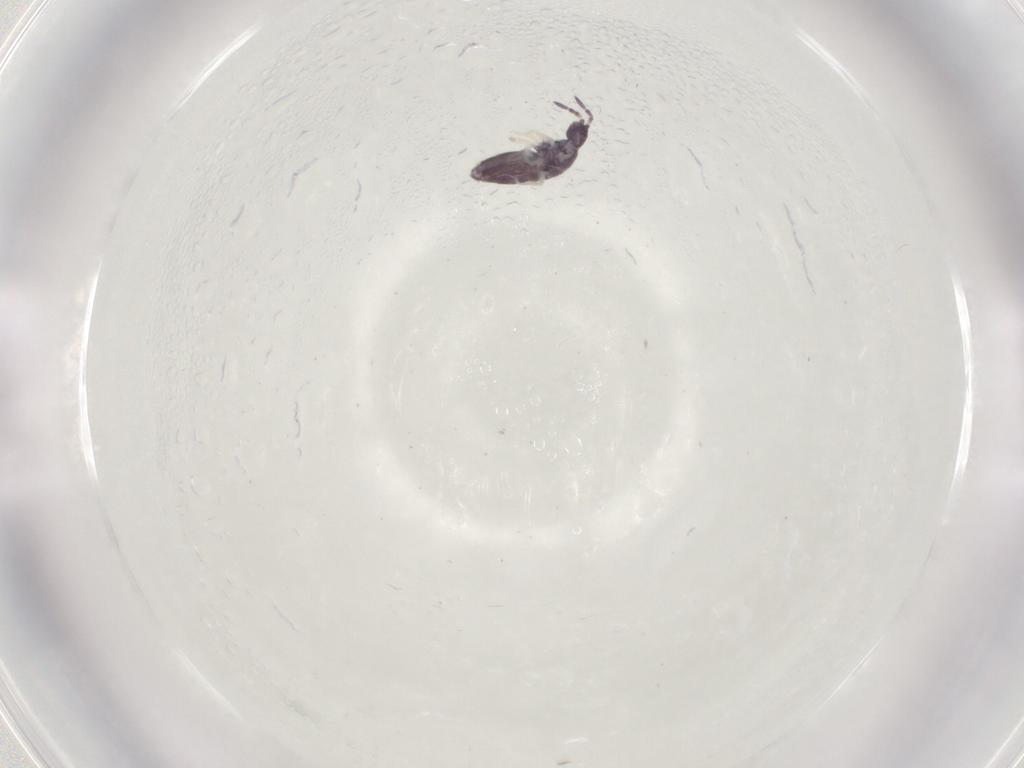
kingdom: Animalia
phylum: Arthropoda
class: Collembola
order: Entomobryomorpha
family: Entomobryidae
